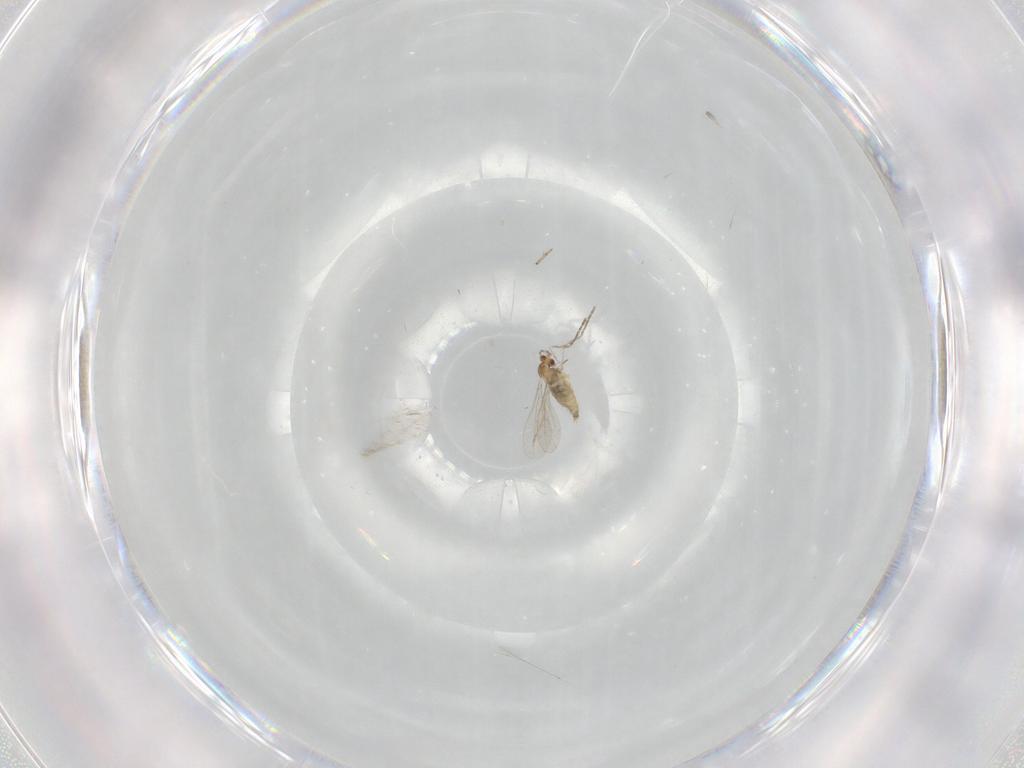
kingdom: Animalia
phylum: Arthropoda
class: Insecta
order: Diptera
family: Cecidomyiidae
